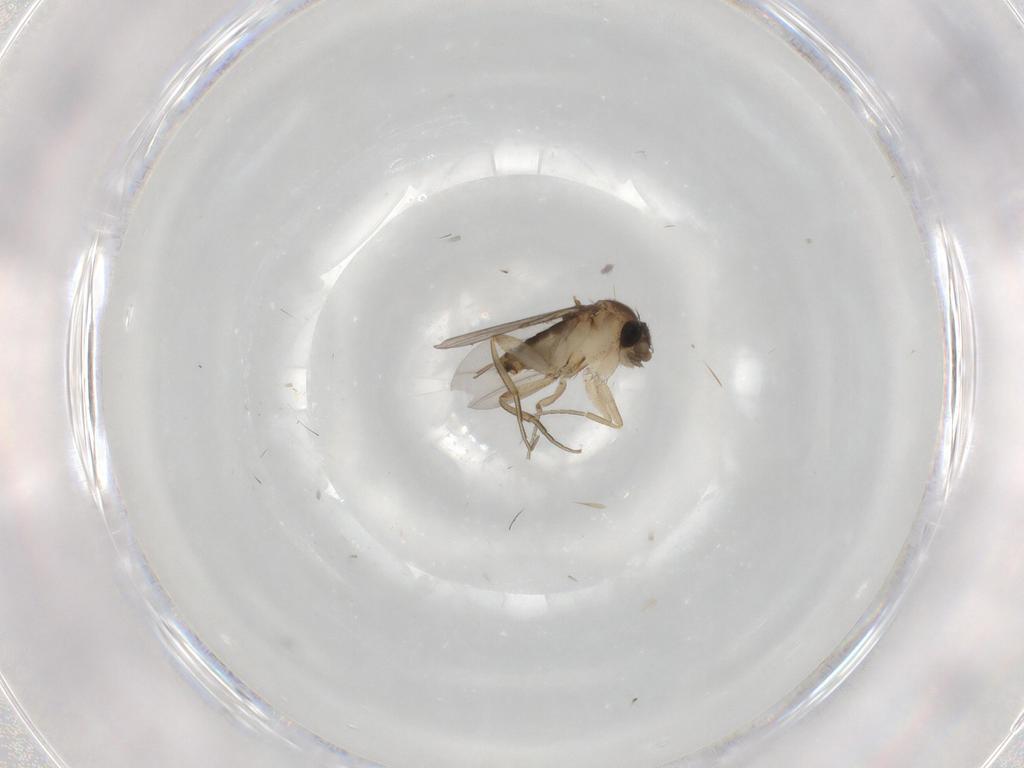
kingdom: Animalia
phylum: Arthropoda
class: Insecta
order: Diptera
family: Phoridae
